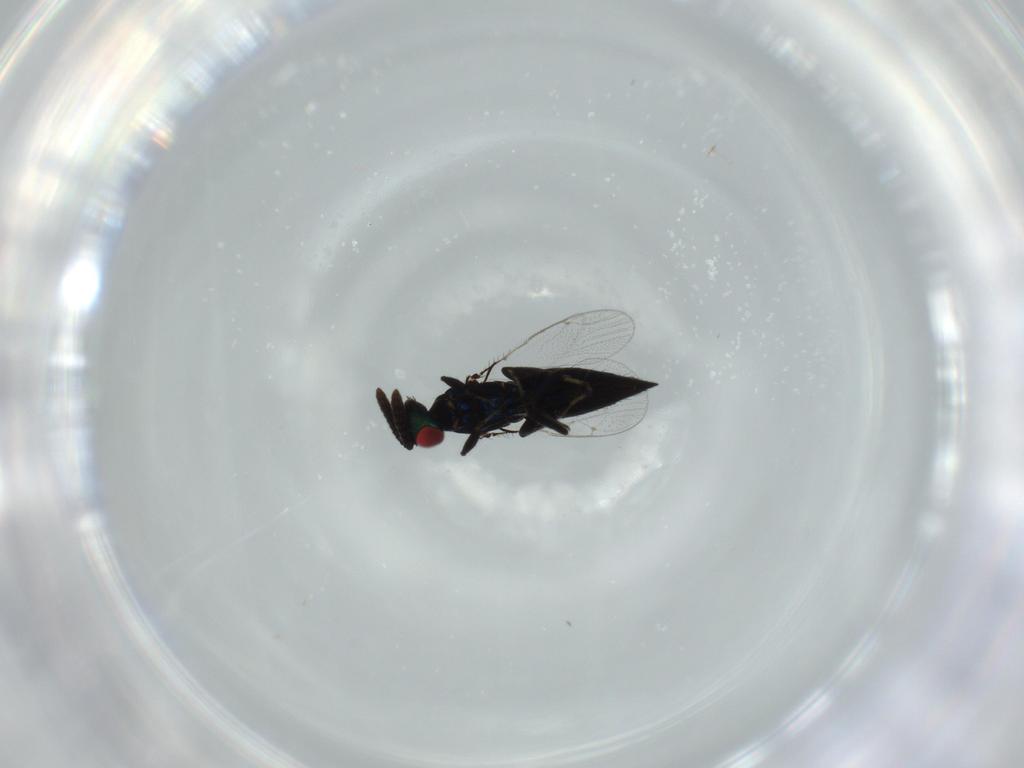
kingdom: Animalia
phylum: Arthropoda
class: Insecta
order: Hymenoptera
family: Pteromalidae
